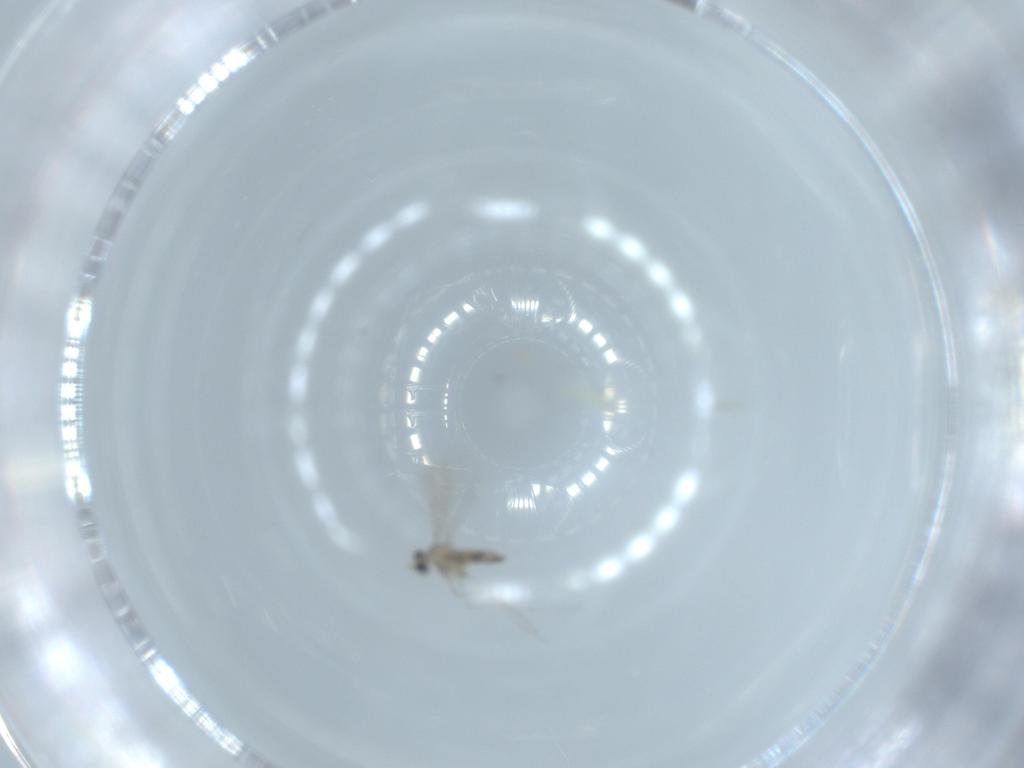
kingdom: Animalia
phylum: Arthropoda
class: Insecta
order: Diptera
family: Cecidomyiidae
